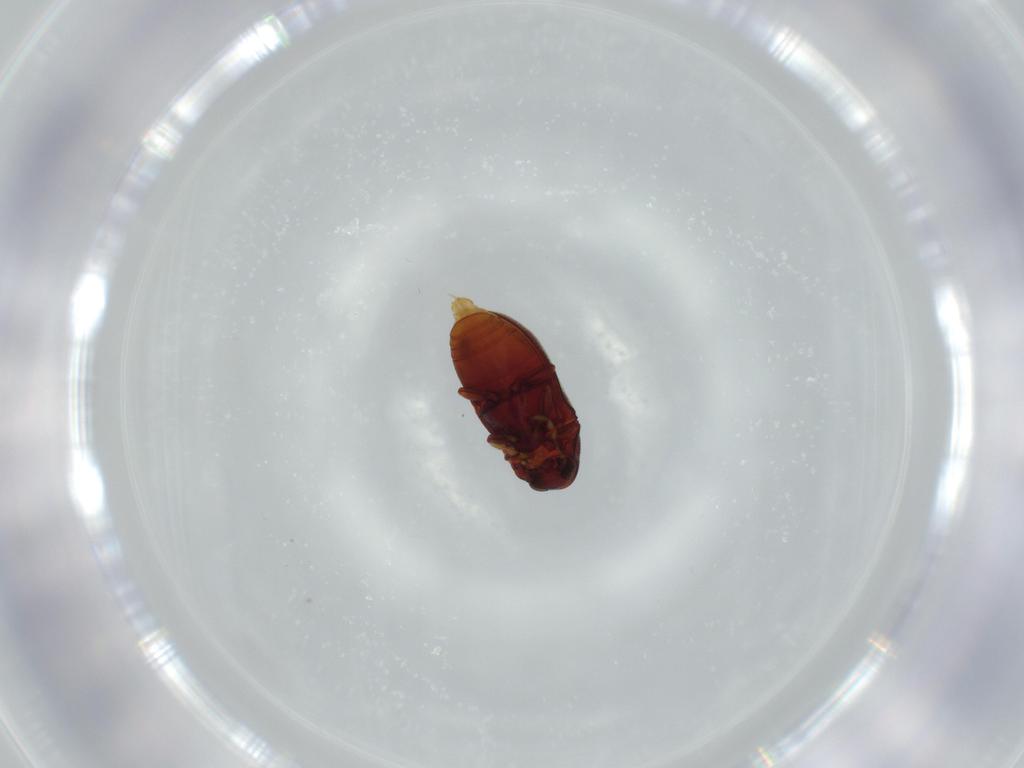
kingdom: Animalia
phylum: Arthropoda
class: Insecta
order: Coleoptera
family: Ptinidae
